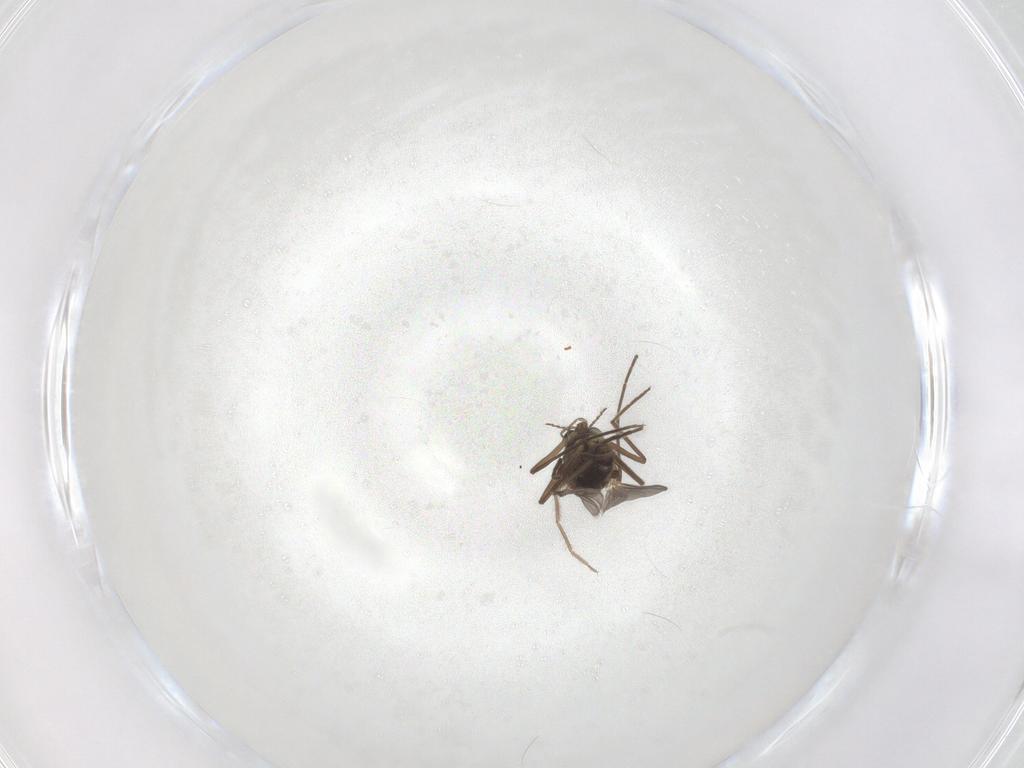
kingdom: Animalia
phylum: Arthropoda
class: Insecta
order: Diptera
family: Chironomidae
